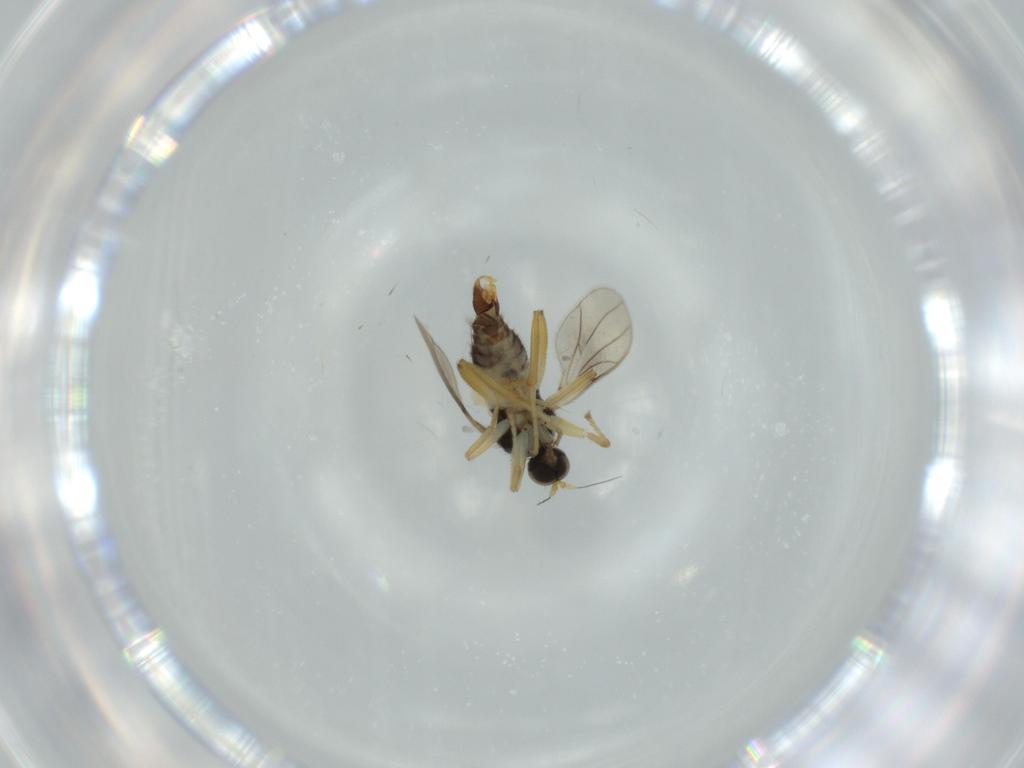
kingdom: Animalia
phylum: Arthropoda
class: Insecta
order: Diptera
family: Hybotidae
